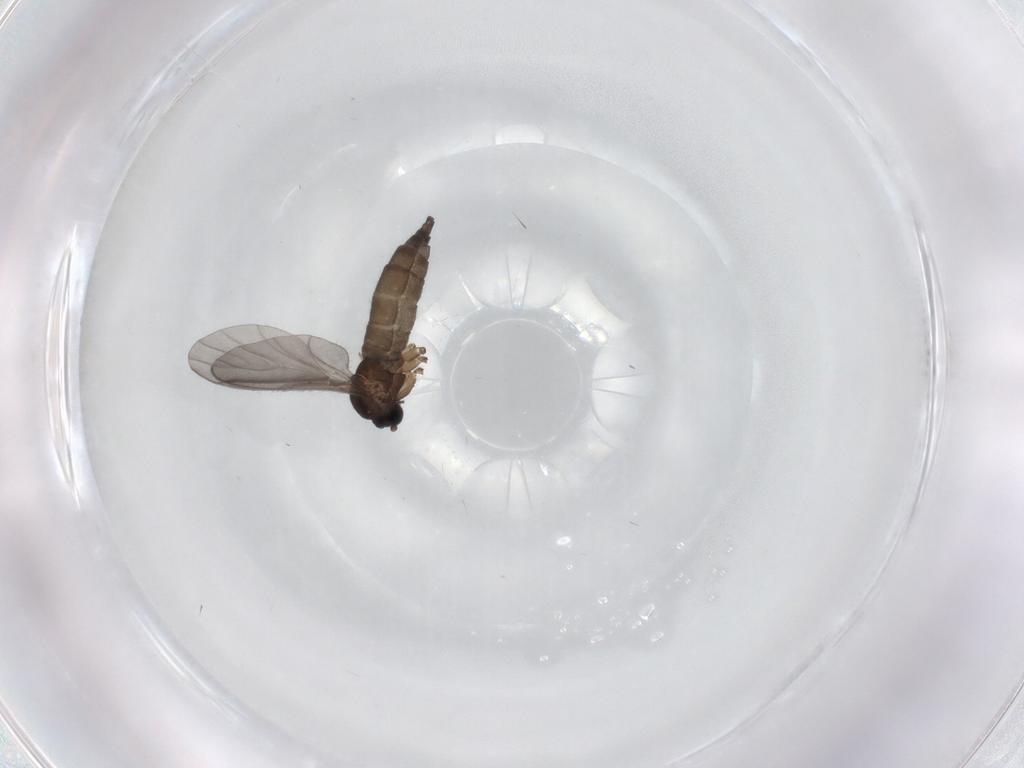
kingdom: Animalia
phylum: Arthropoda
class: Insecta
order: Diptera
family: Sciaridae
